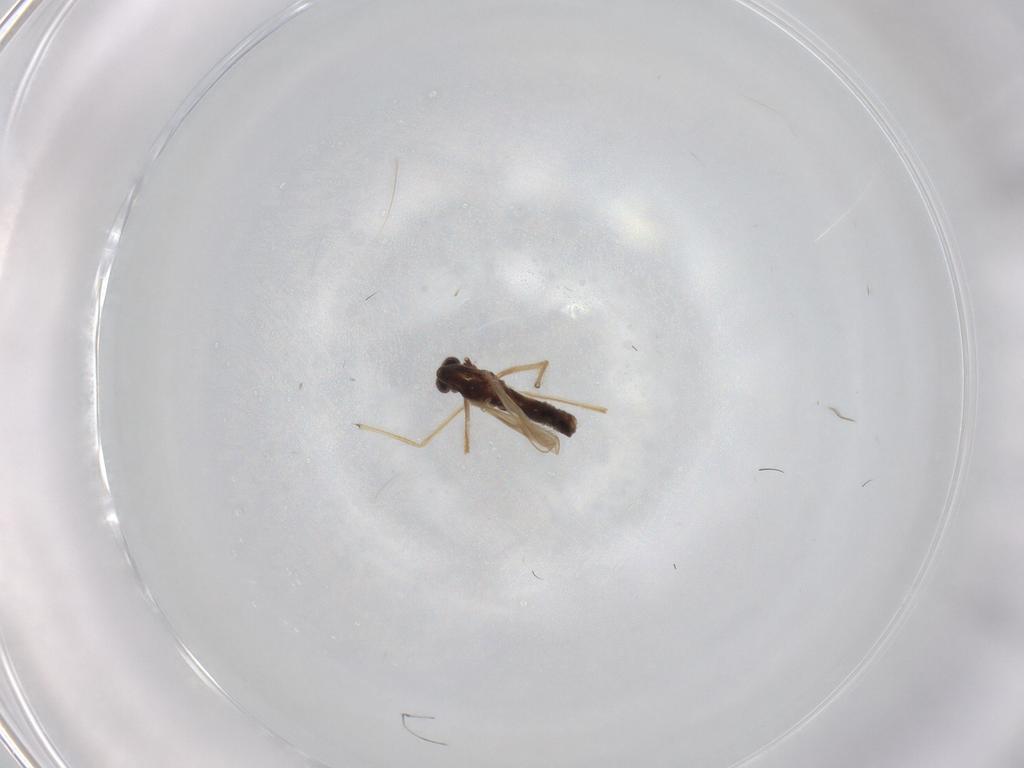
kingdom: Animalia
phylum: Arthropoda
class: Insecta
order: Diptera
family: Chironomidae
